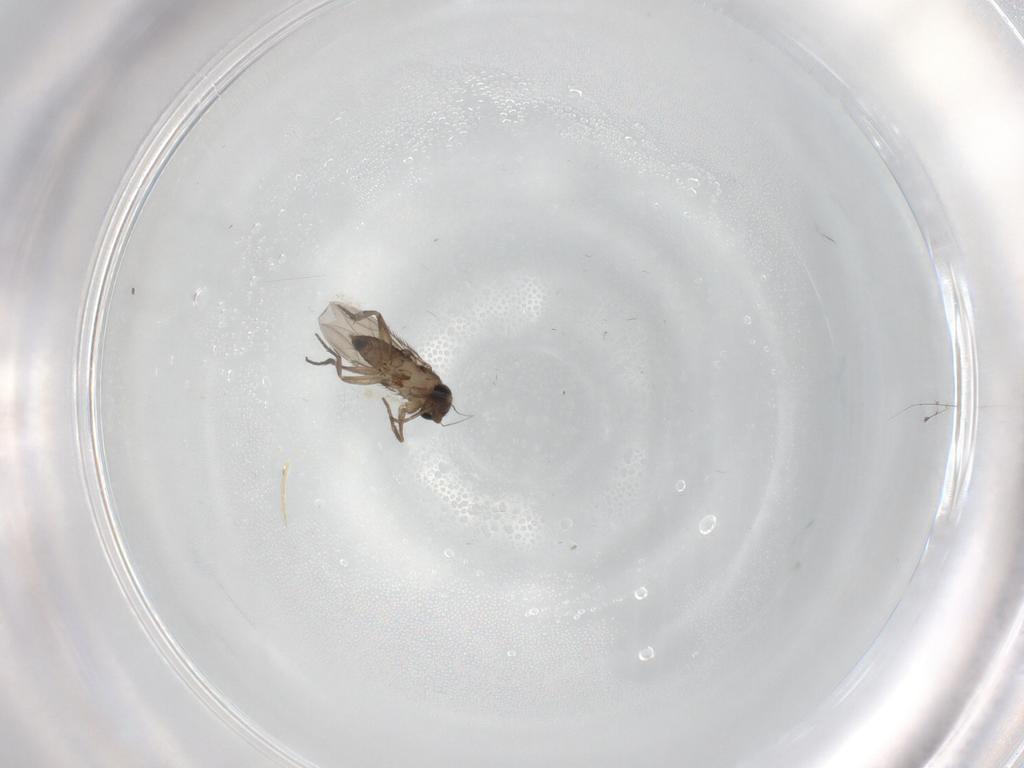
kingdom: Animalia
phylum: Arthropoda
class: Insecta
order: Diptera
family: Phoridae
